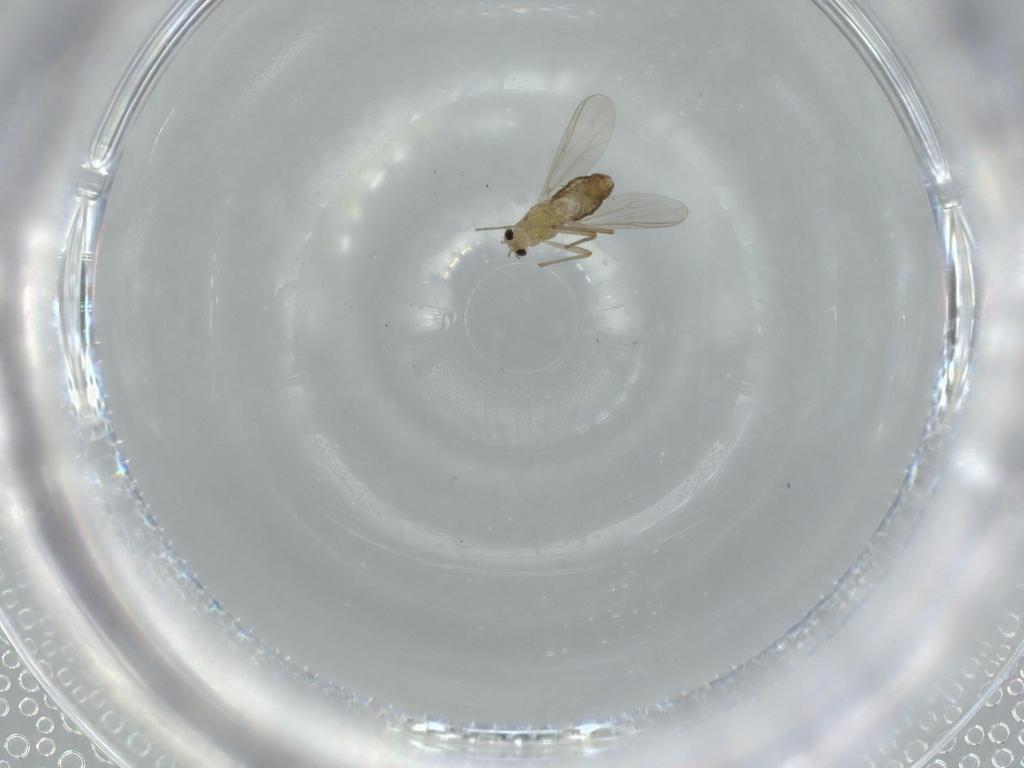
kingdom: Animalia
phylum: Arthropoda
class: Insecta
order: Diptera
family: Chironomidae
